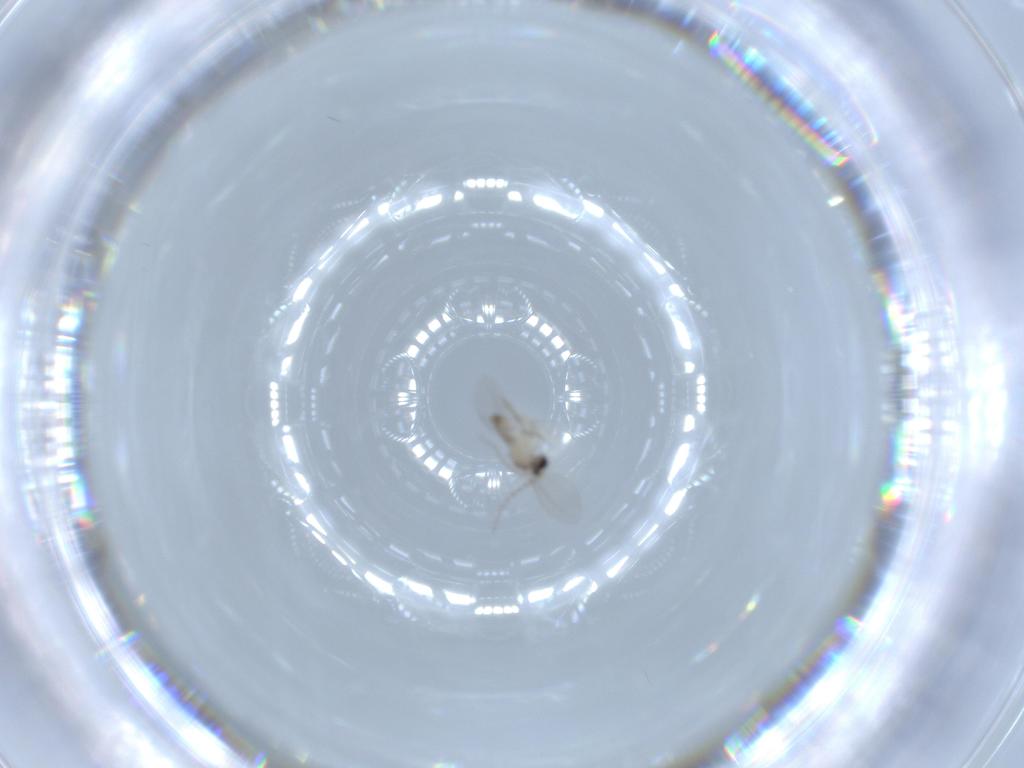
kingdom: Animalia
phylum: Arthropoda
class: Insecta
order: Diptera
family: Cecidomyiidae
